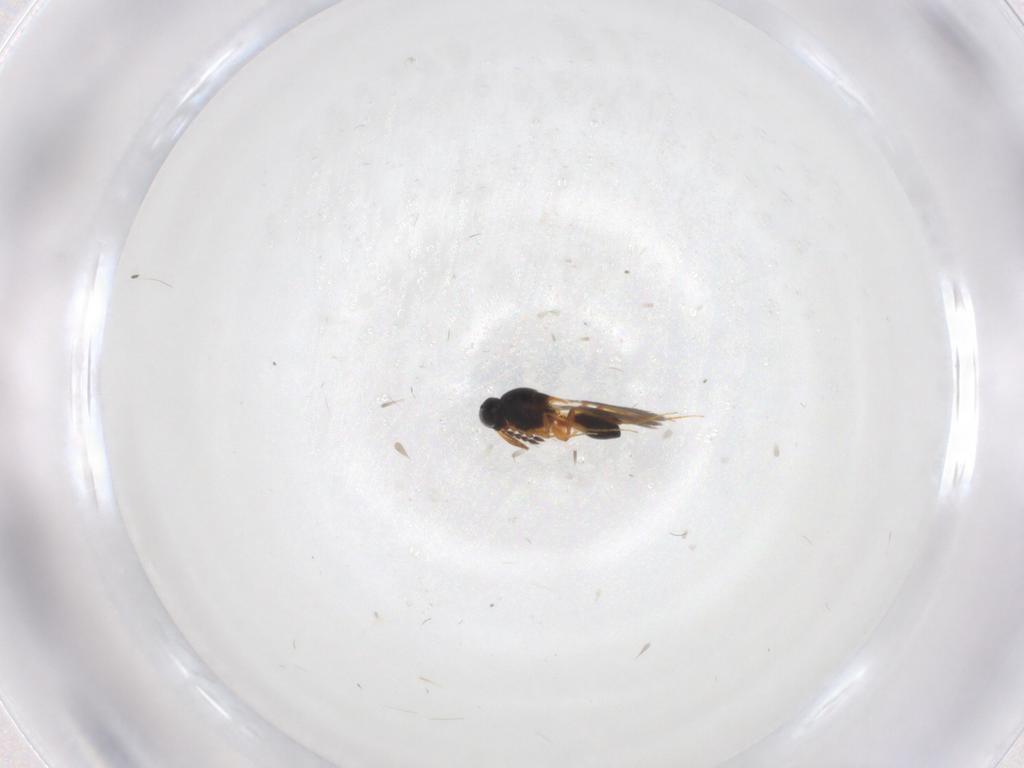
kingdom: Animalia
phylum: Arthropoda
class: Insecta
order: Hymenoptera
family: Platygastridae
